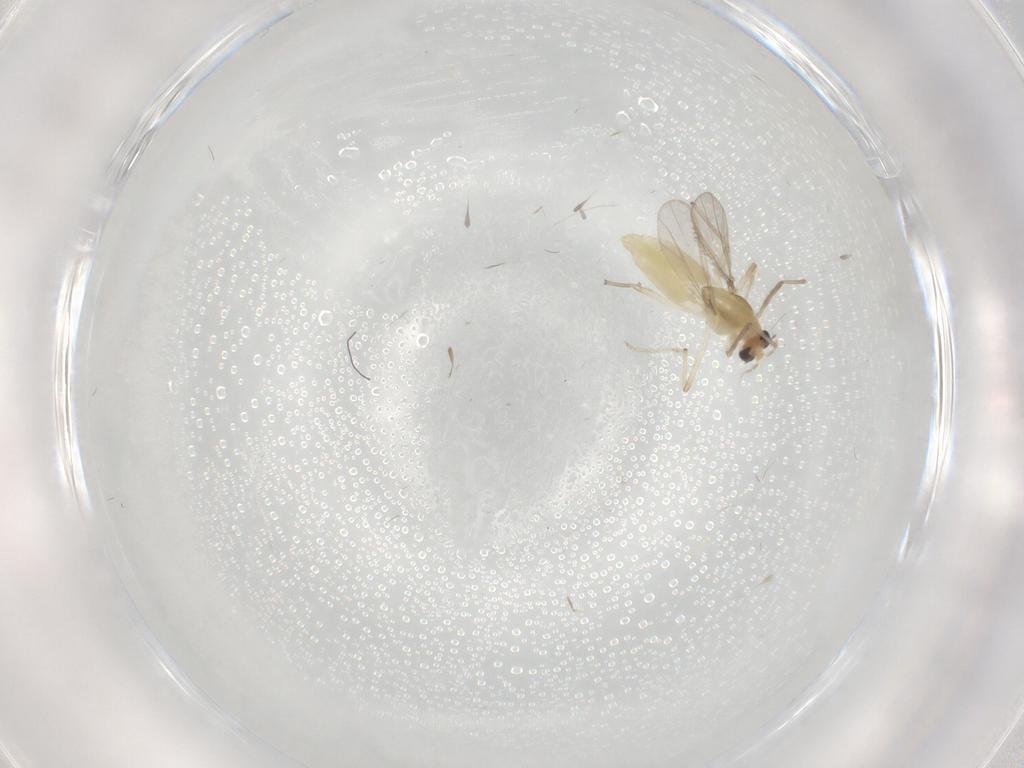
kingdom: Animalia
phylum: Arthropoda
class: Insecta
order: Diptera
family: Chironomidae
